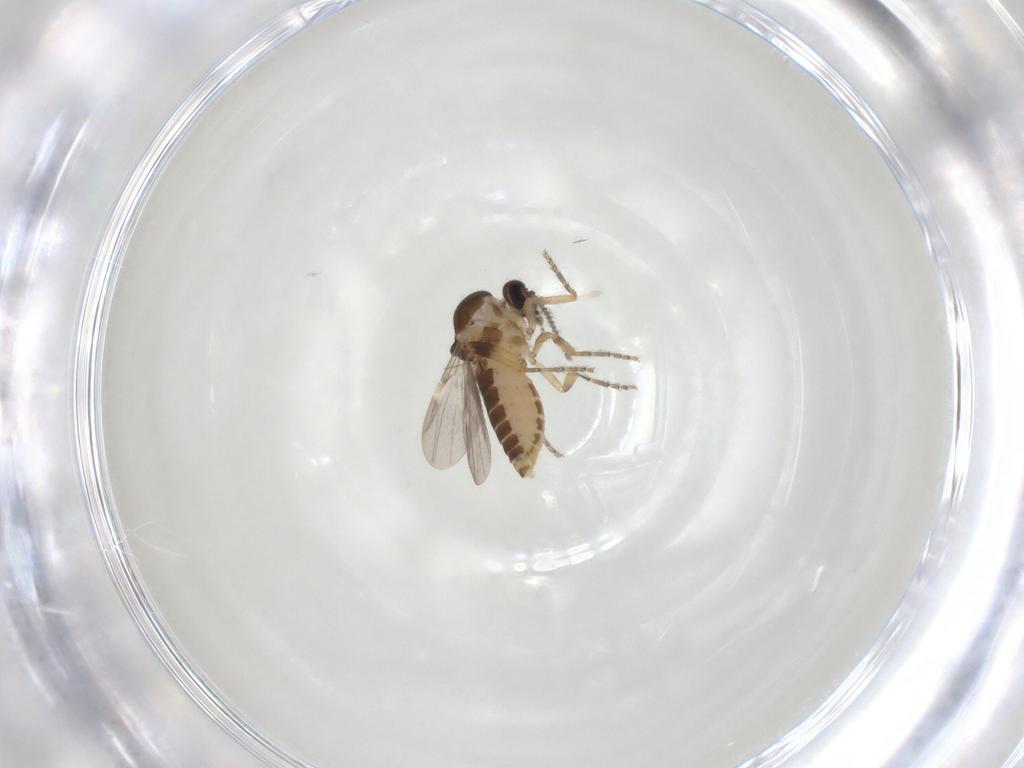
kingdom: Animalia
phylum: Arthropoda
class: Insecta
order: Diptera
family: Ceratopogonidae
